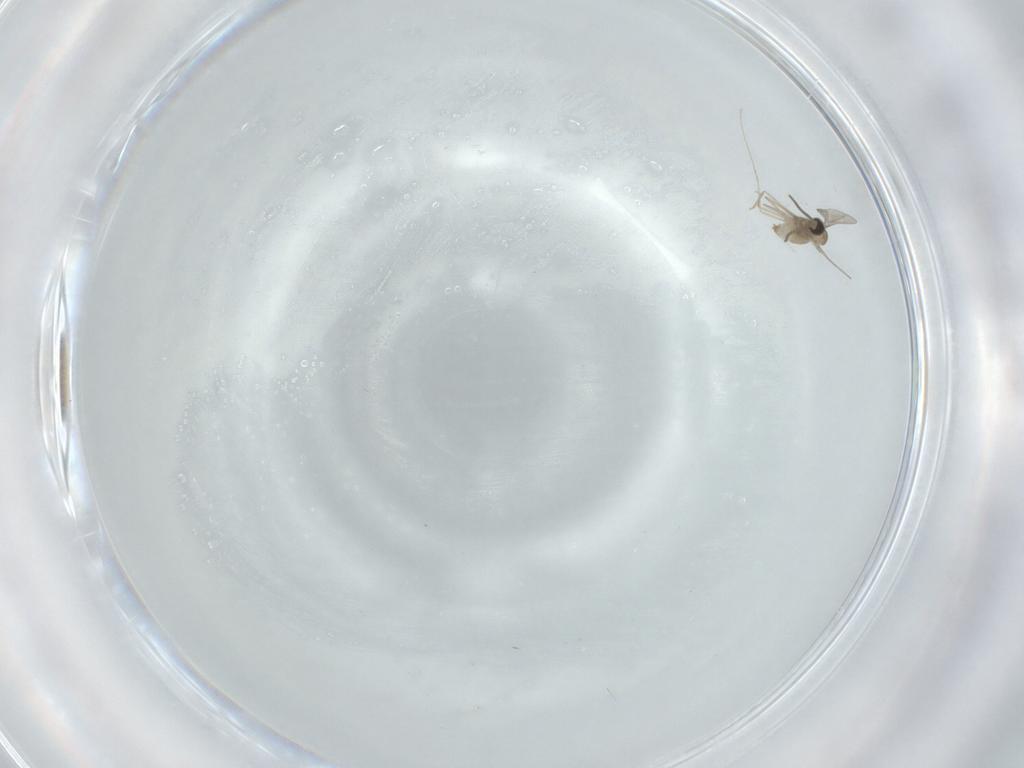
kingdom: Animalia
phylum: Arthropoda
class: Insecta
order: Diptera
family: Cecidomyiidae
